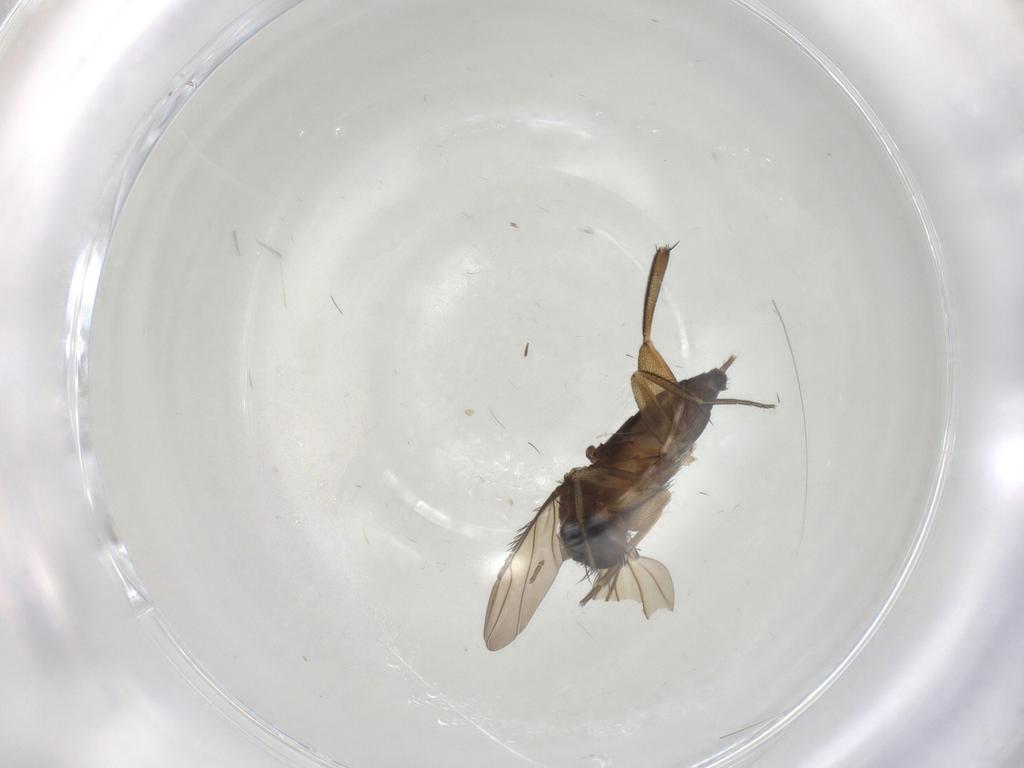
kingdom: Animalia
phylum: Arthropoda
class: Insecta
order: Diptera
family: Phoridae
